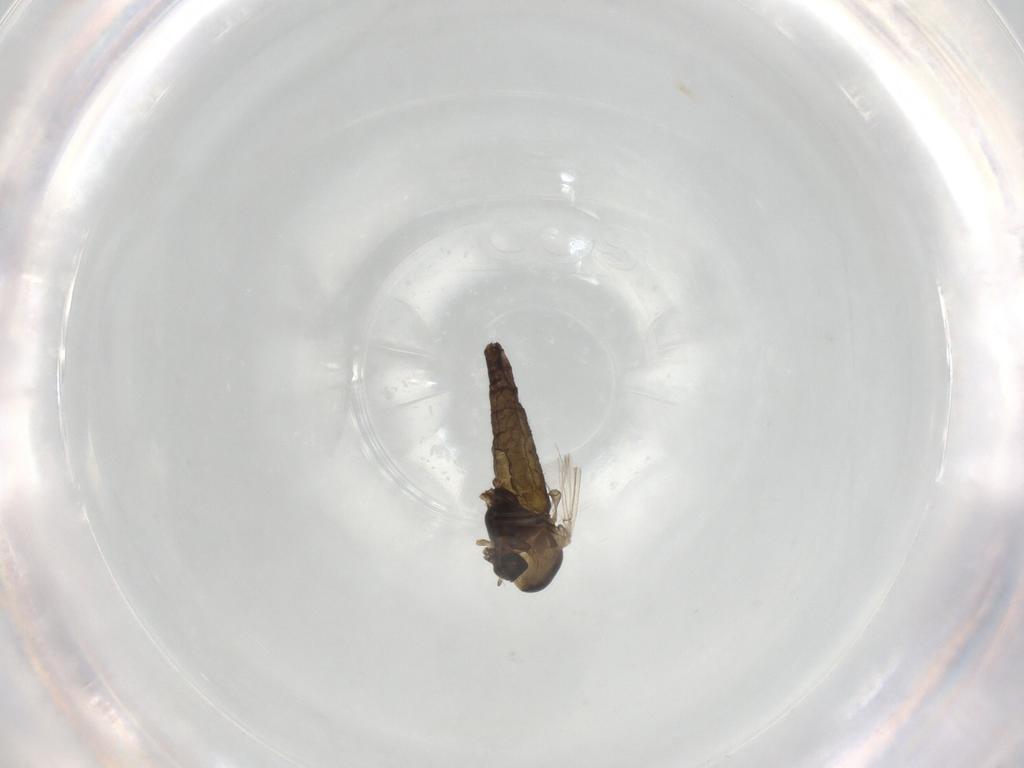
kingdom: Animalia
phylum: Arthropoda
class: Insecta
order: Diptera
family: Chironomidae
